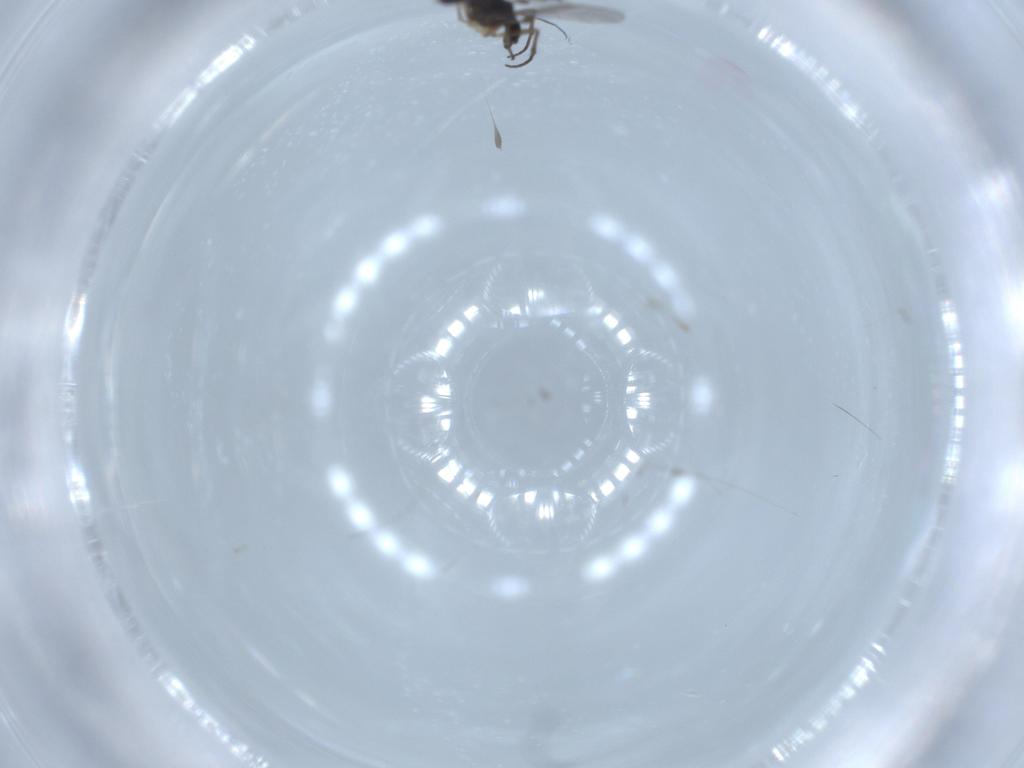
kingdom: Animalia
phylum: Arthropoda
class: Insecta
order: Diptera
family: Sciaridae
